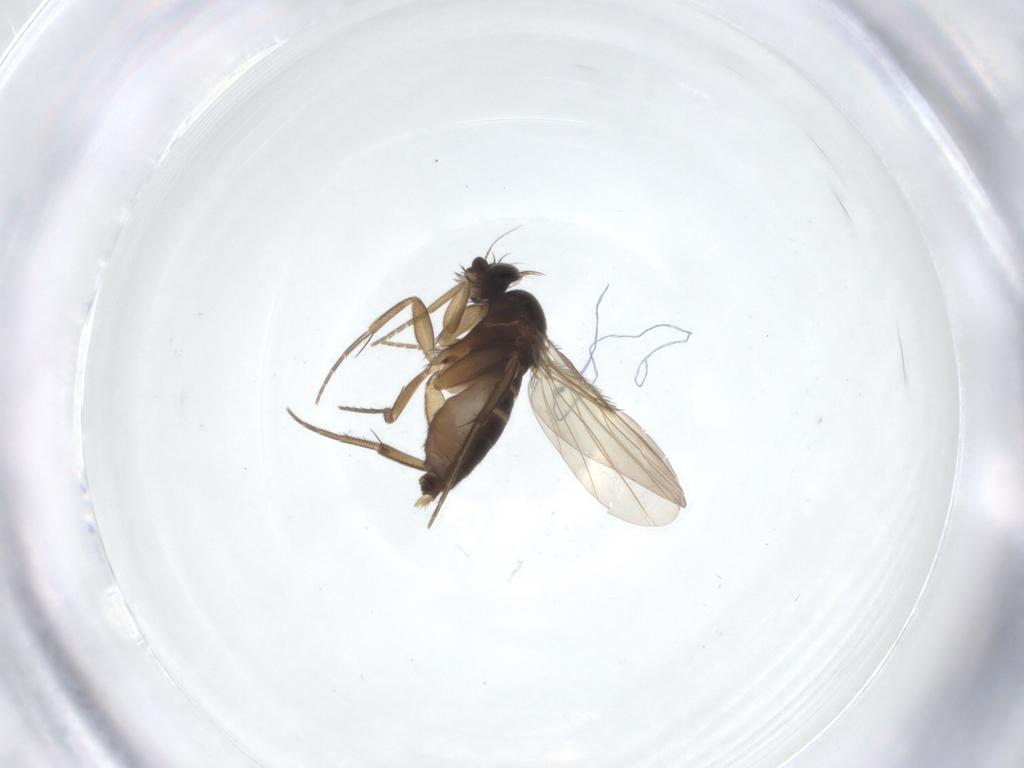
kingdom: Animalia
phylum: Arthropoda
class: Insecta
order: Diptera
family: Phoridae
